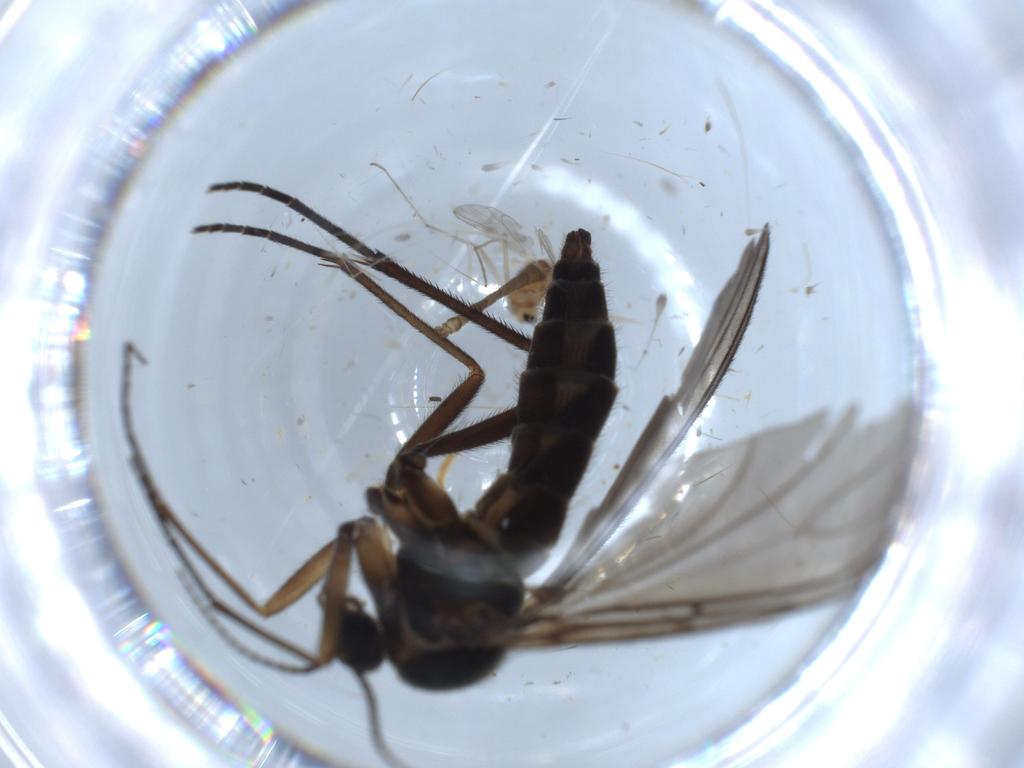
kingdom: Animalia
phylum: Arthropoda
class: Insecta
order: Diptera
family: Sciaridae
